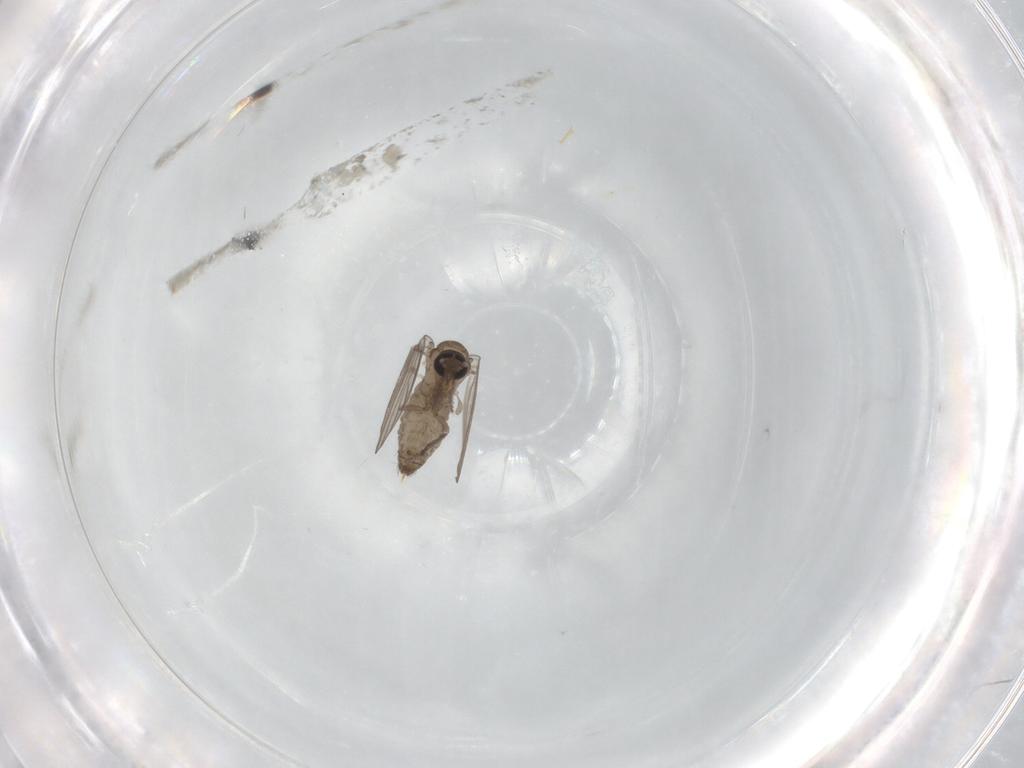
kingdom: Animalia
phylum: Arthropoda
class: Insecta
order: Diptera
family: Psychodidae
